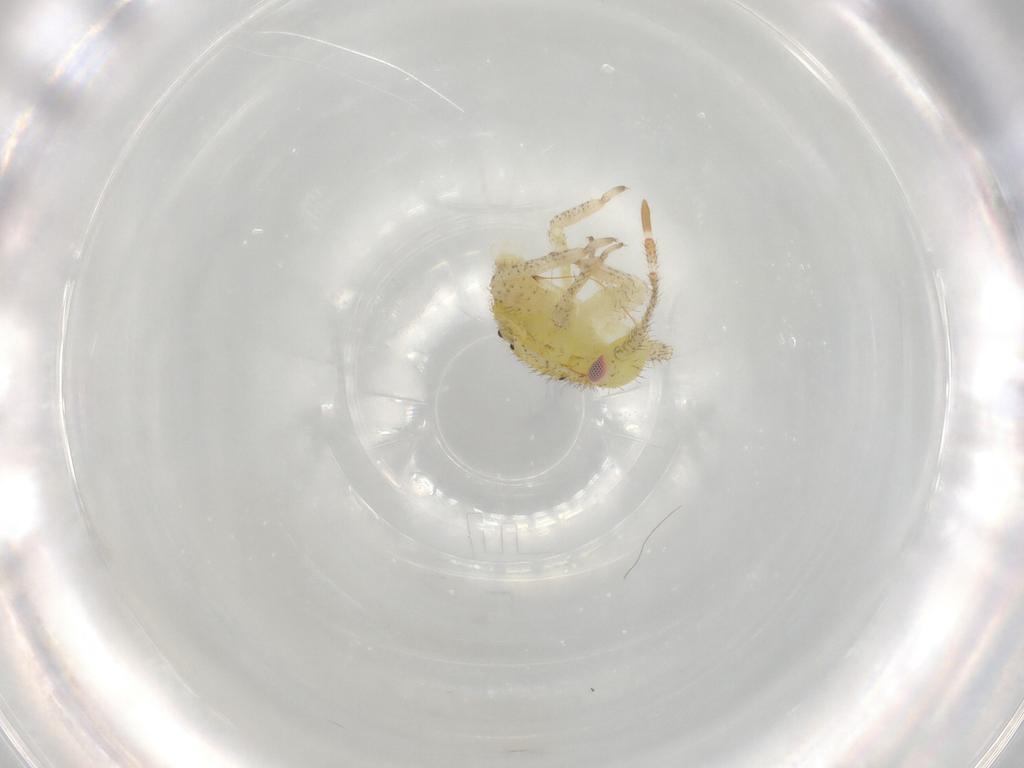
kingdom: Animalia
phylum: Arthropoda
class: Insecta
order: Hemiptera
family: Miridae
